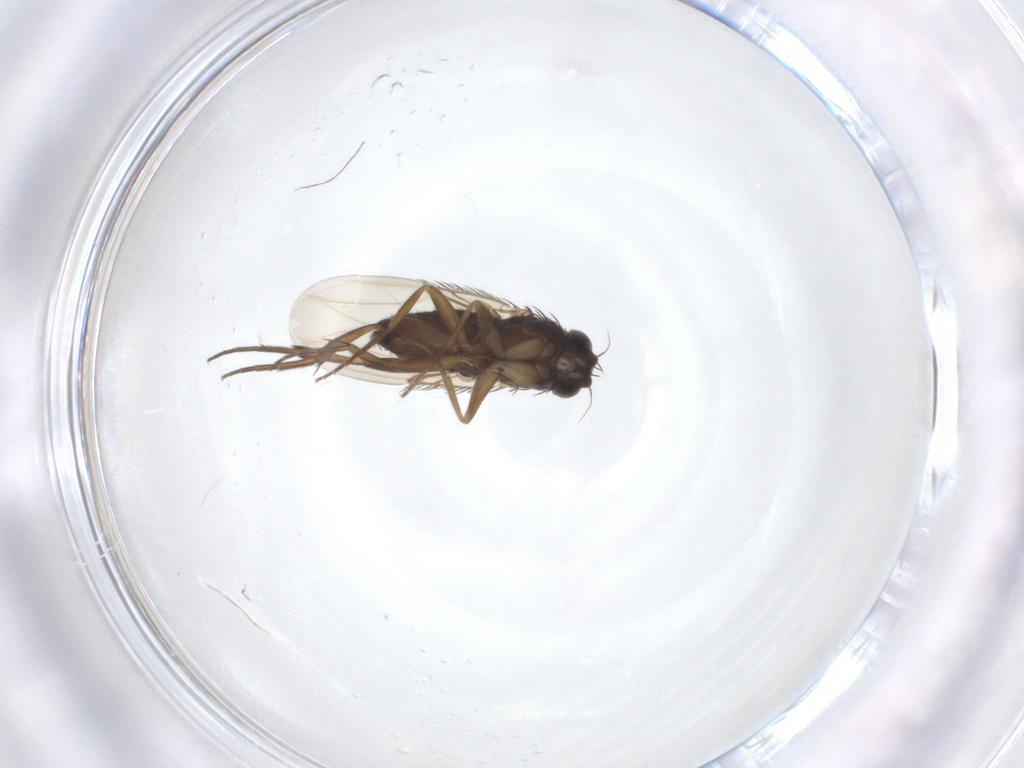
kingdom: Animalia
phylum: Arthropoda
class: Insecta
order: Diptera
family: Phoridae
